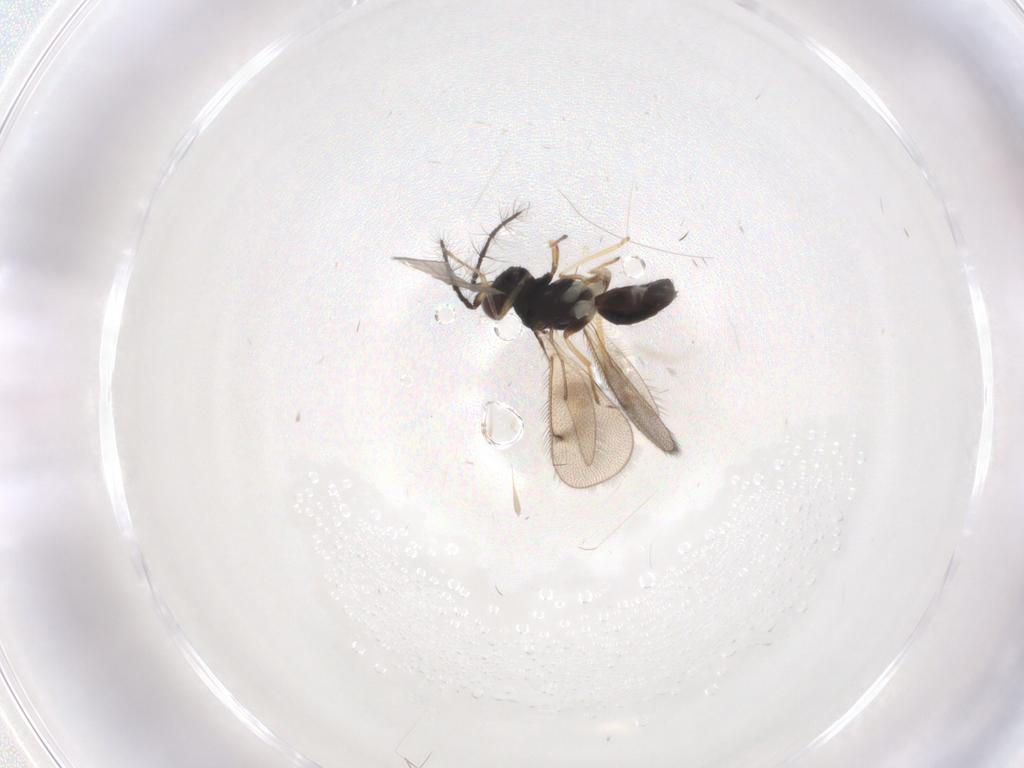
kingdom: Animalia
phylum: Arthropoda
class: Insecta
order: Hymenoptera
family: Eulophidae
